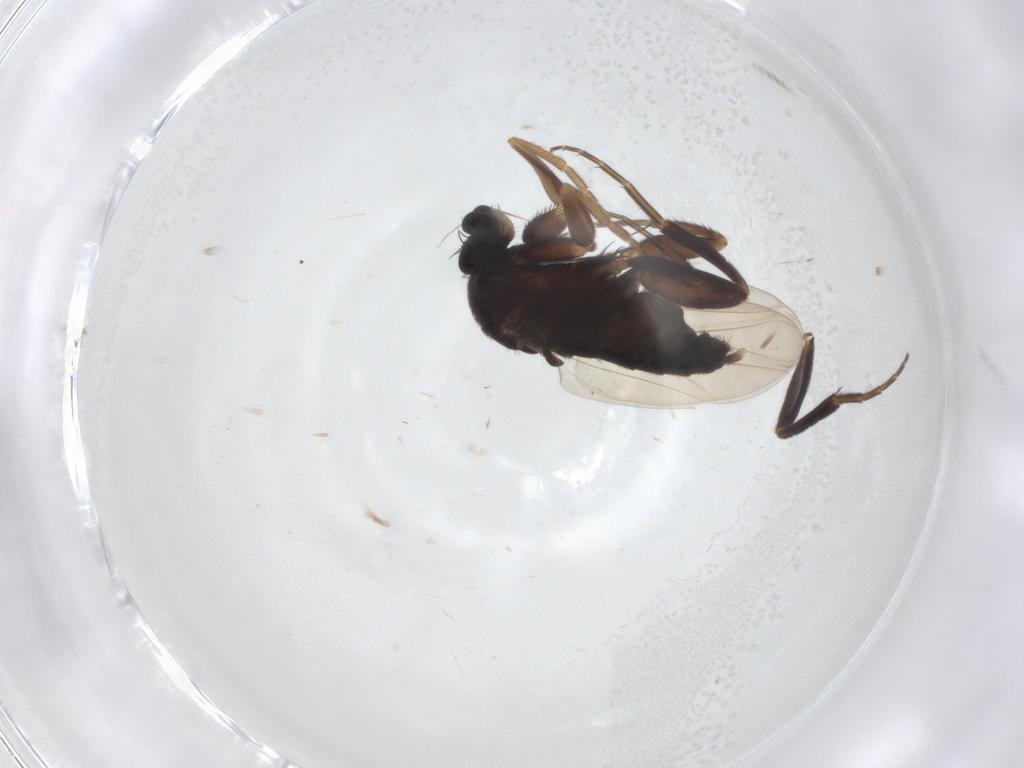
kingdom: Animalia
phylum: Arthropoda
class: Insecta
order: Diptera
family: Phoridae
